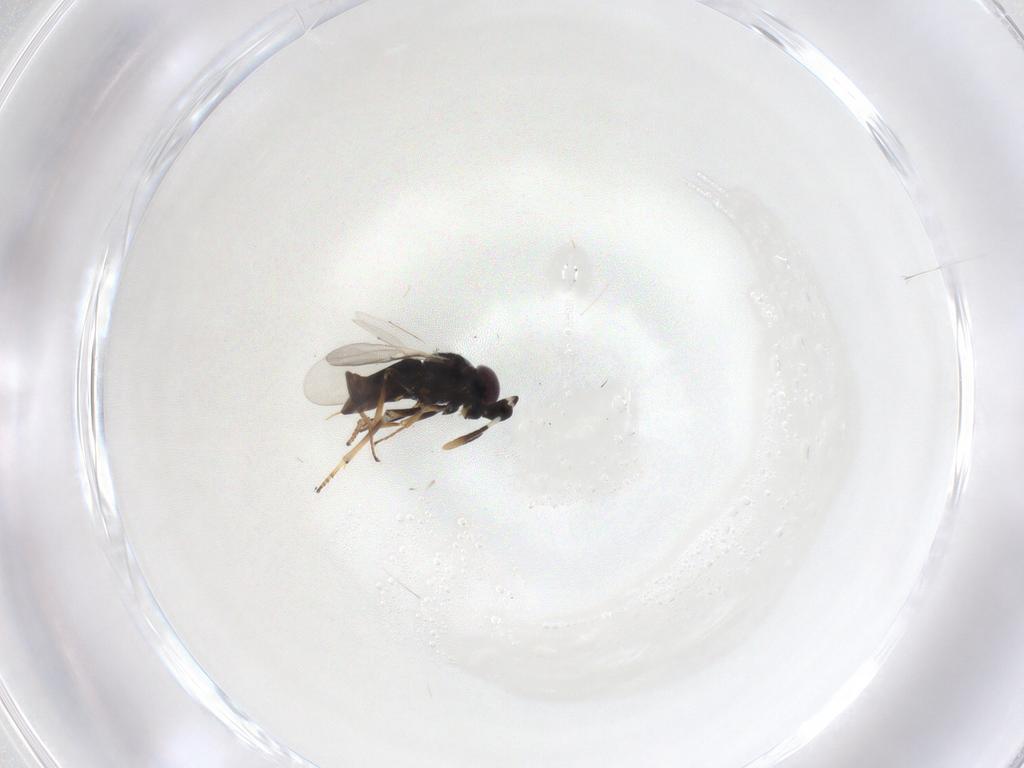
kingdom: Animalia
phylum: Arthropoda
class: Insecta
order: Hymenoptera
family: Encyrtidae
